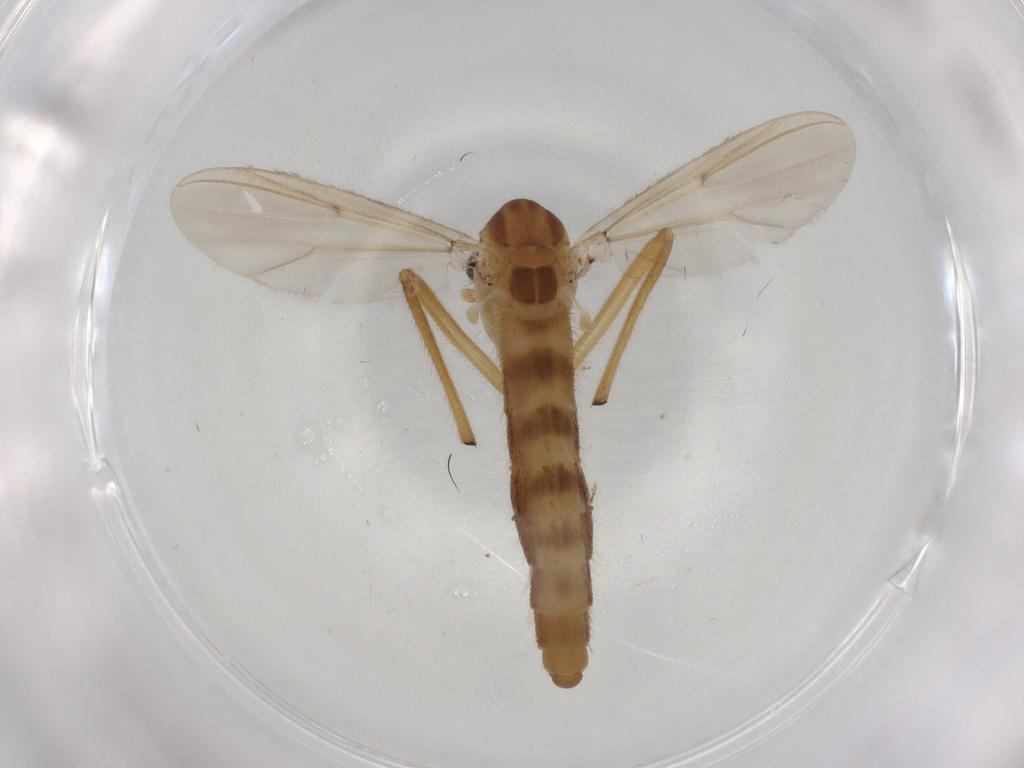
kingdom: Animalia
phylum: Arthropoda
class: Insecta
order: Diptera
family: Chironomidae
